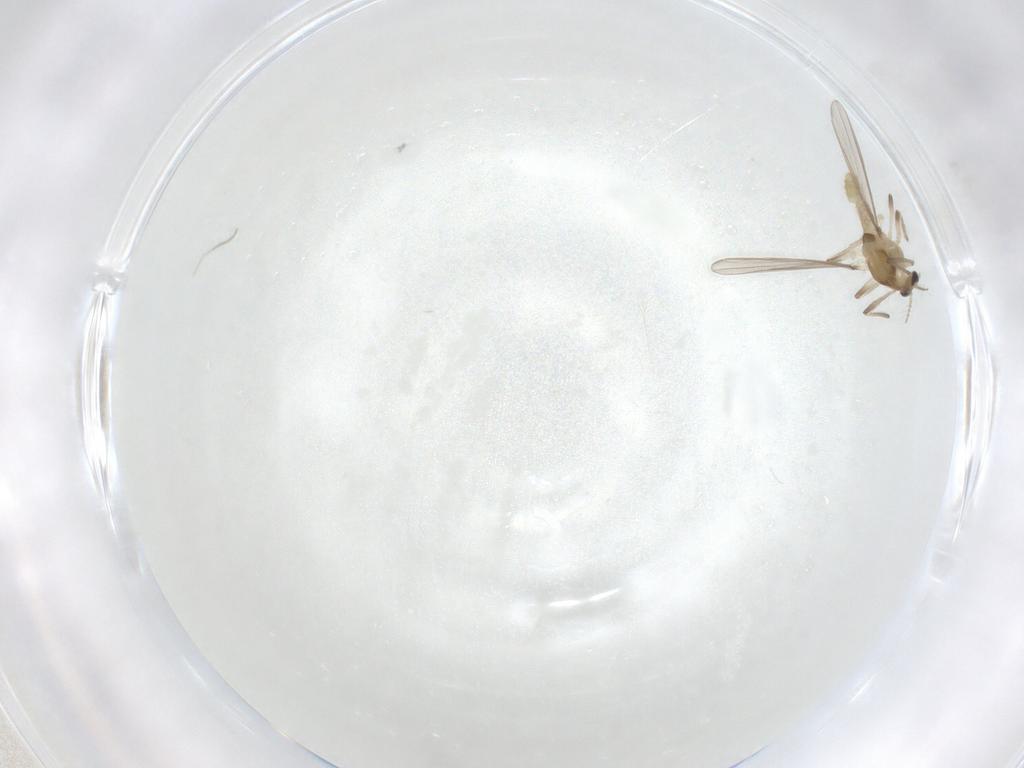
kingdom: Animalia
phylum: Arthropoda
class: Insecta
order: Diptera
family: Chironomidae
